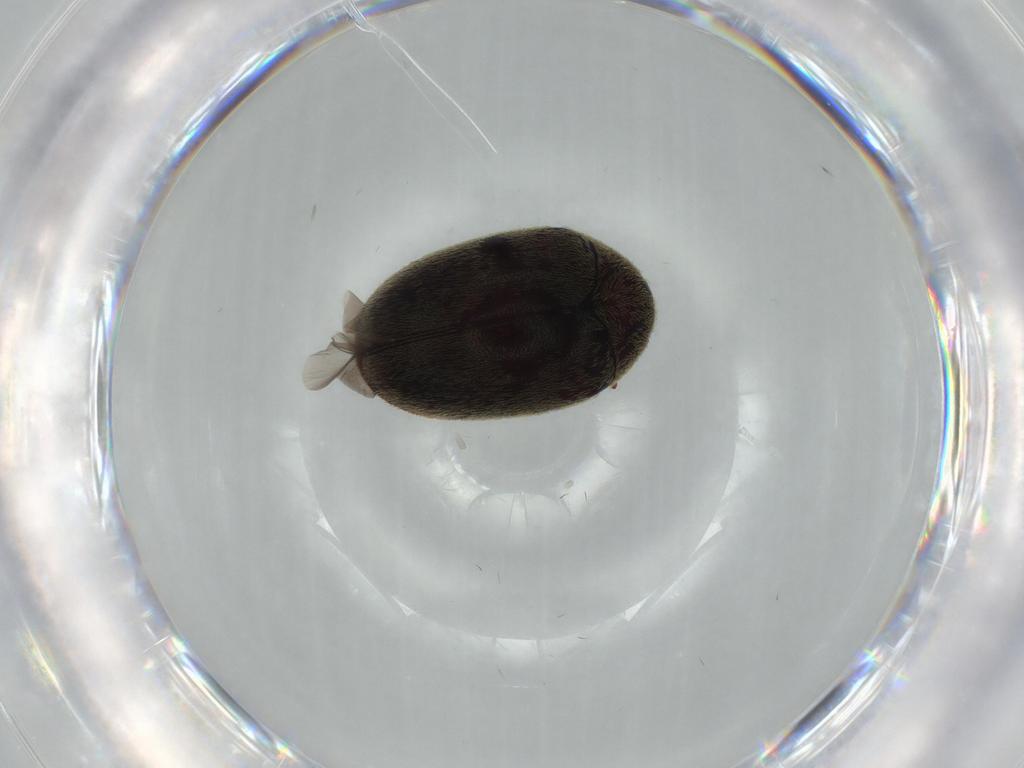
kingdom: Animalia
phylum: Arthropoda
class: Insecta
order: Coleoptera
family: Dermestidae
